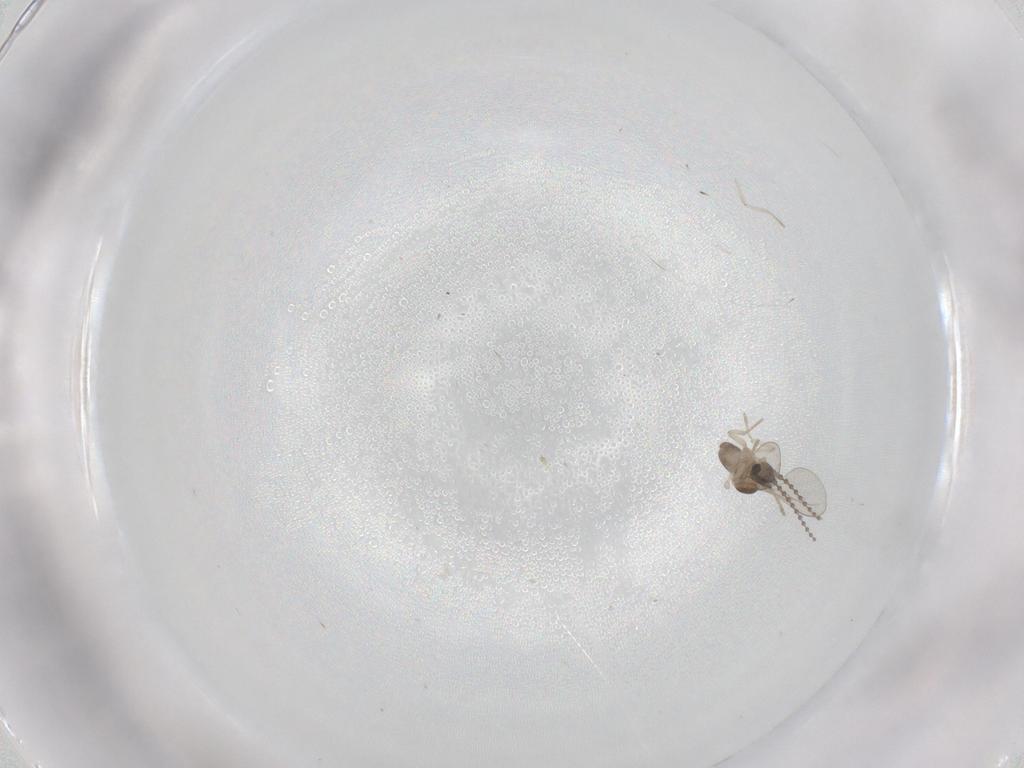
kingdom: Animalia
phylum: Arthropoda
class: Insecta
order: Diptera
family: Cecidomyiidae
